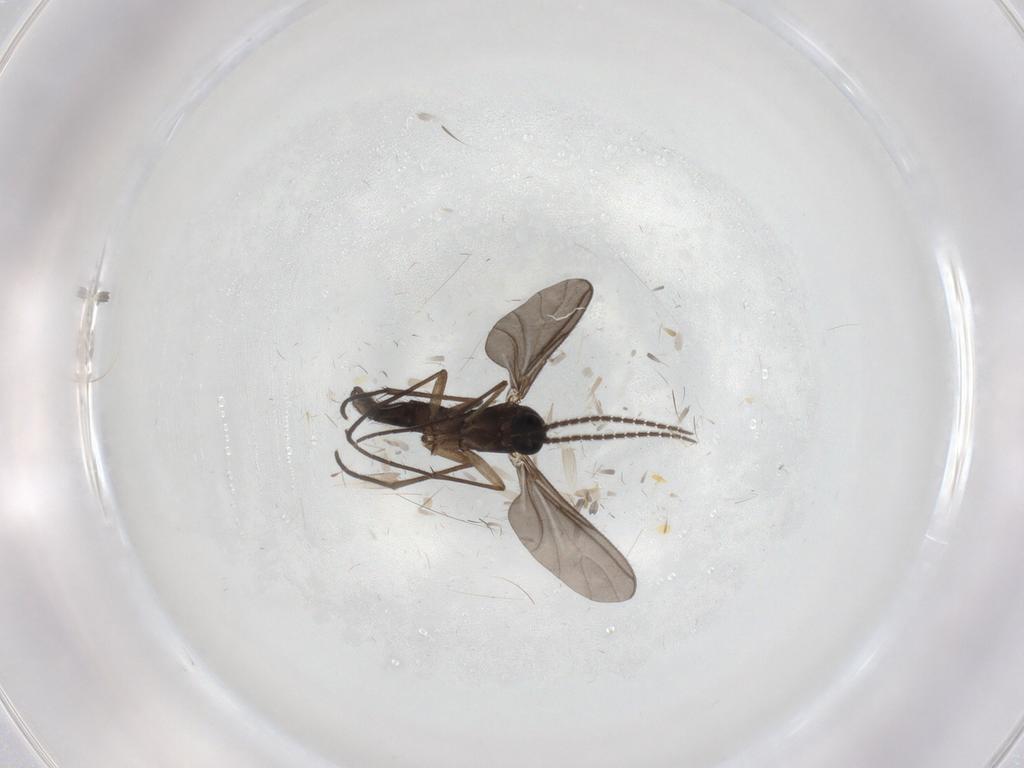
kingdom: Animalia
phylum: Arthropoda
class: Insecta
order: Diptera
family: Sciaridae
